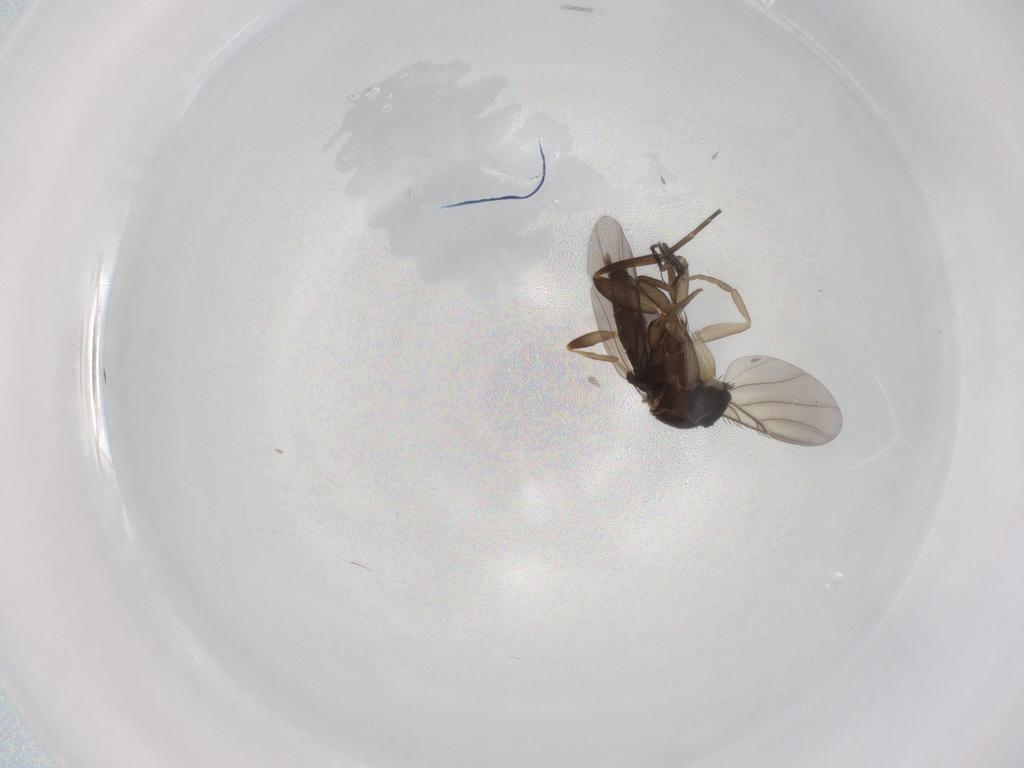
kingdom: Animalia
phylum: Arthropoda
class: Insecta
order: Diptera
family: Phoridae
